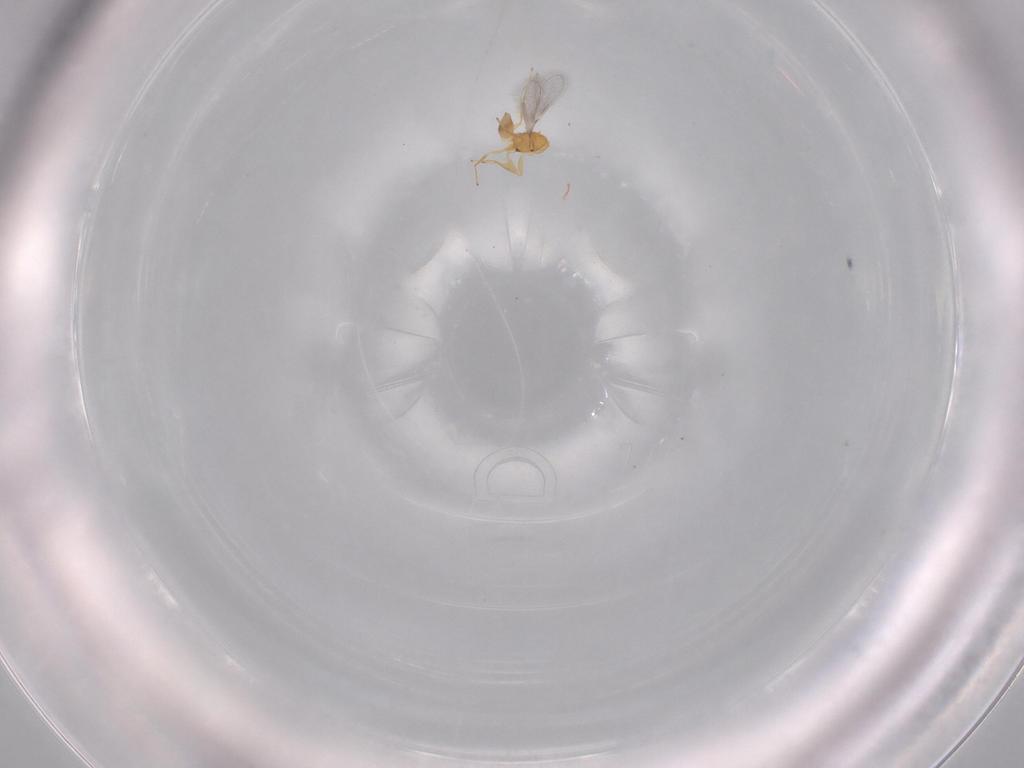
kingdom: Animalia
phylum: Arthropoda
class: Insecta
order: Hymenoptera
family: Mymaridae
